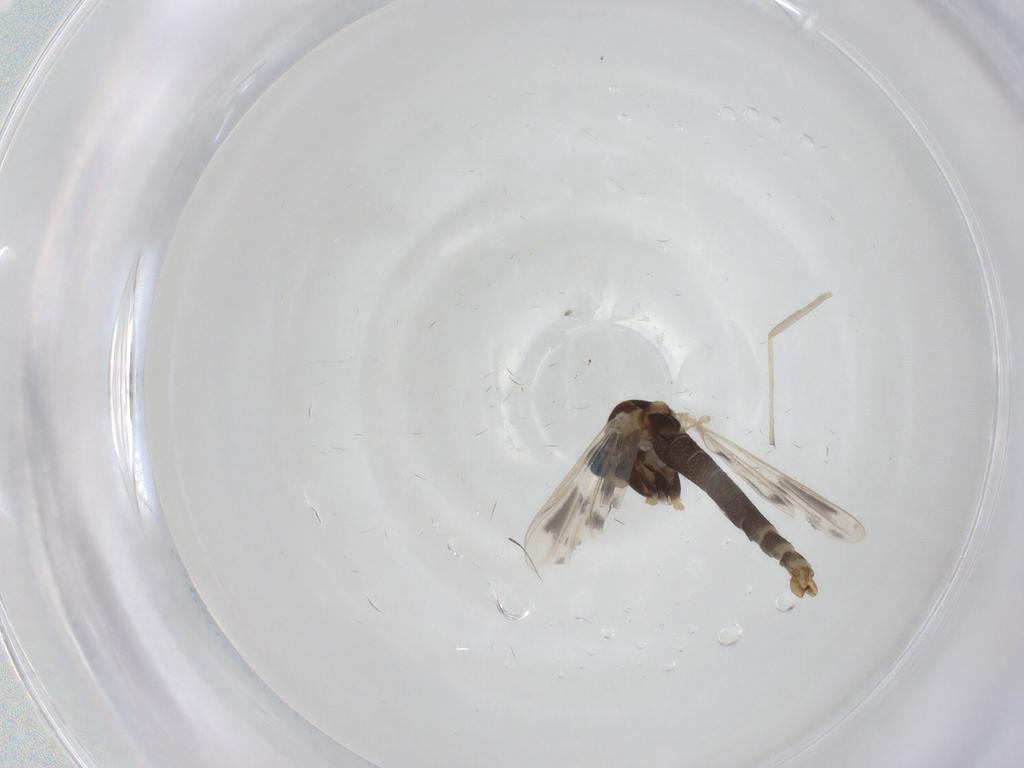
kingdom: Animalia
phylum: Arthropoda
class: Insecta
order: Diptera
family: Chironomidae
